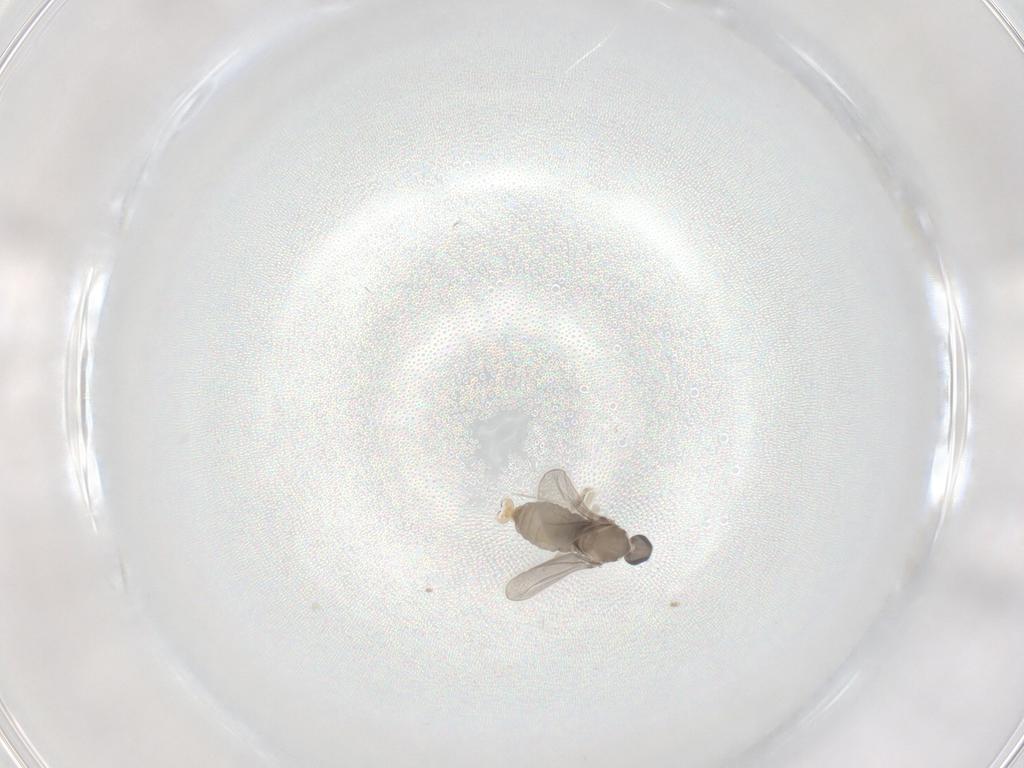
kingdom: Animalia
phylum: Arthropoda
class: Insecta
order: Diptera
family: Cecidomyiidae
